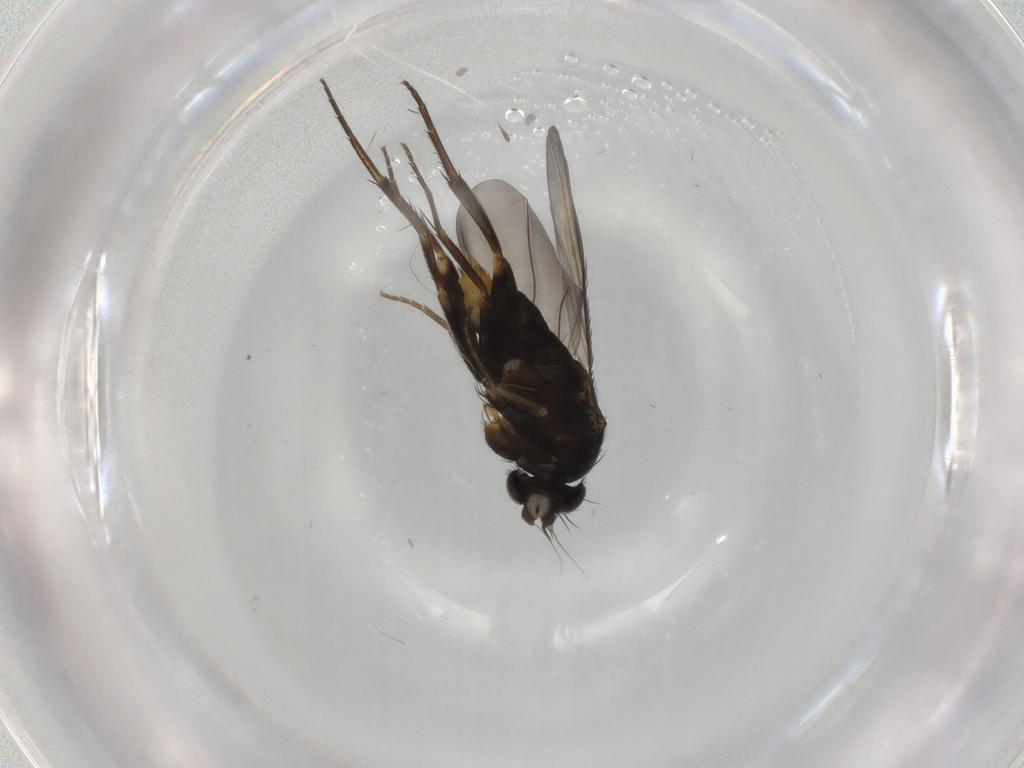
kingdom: Animalia
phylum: Arthropoda
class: Insecta
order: Diptera
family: Phoridae
